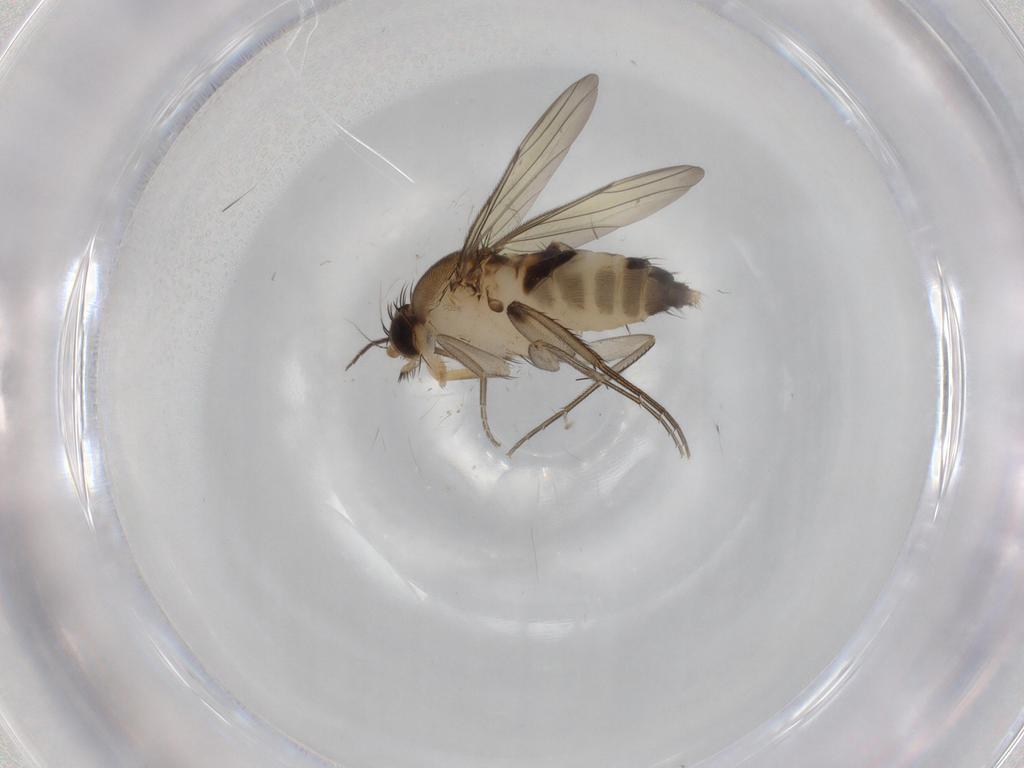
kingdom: Animalia
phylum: Arthropoda
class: Insecta
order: Diptera
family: Phoridae
